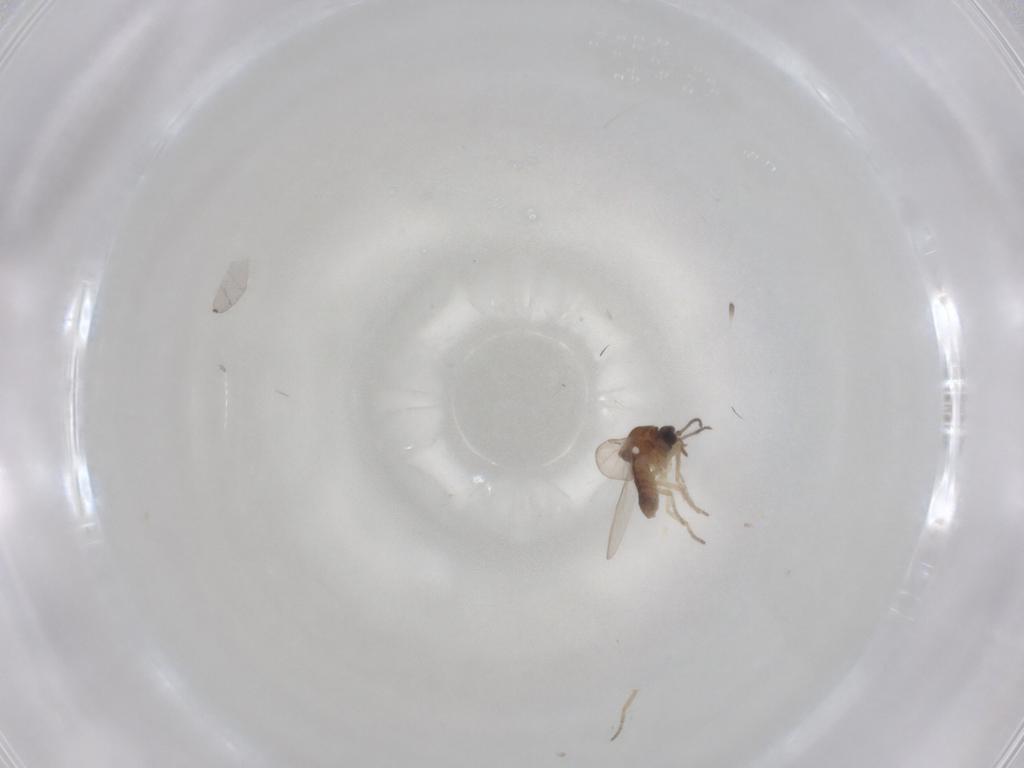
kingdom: Animalia
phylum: Arthropoda
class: Insecta
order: Diptera
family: Ceratopogonidae
